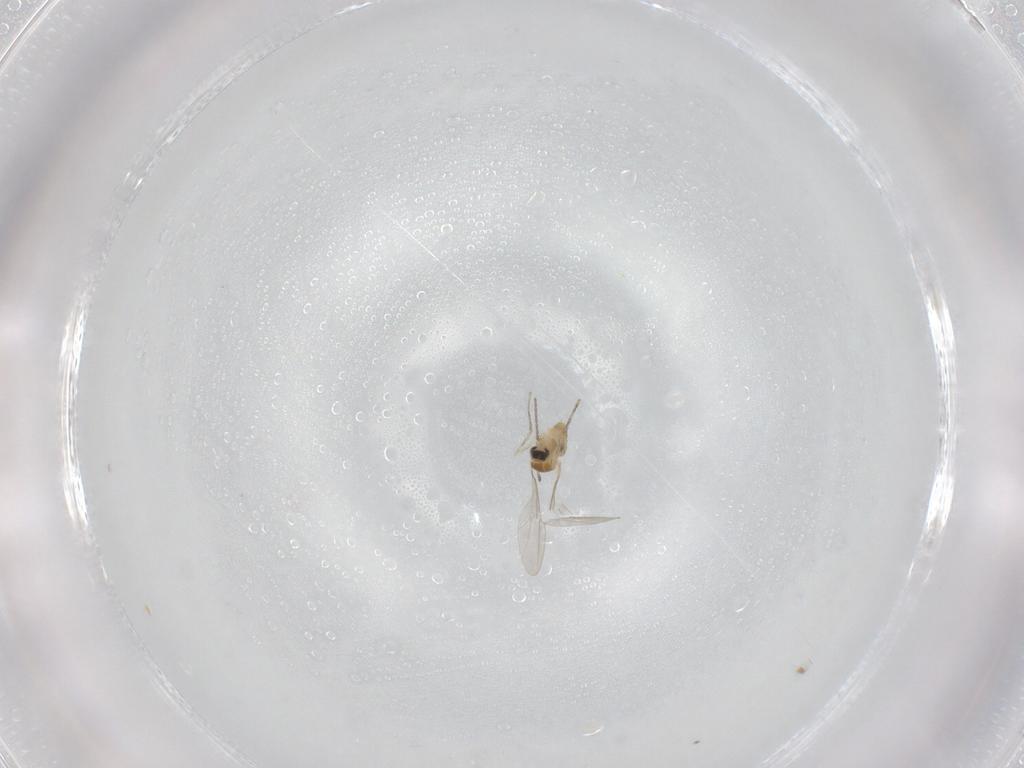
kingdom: Animalia
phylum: Arthropoda
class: Insecta
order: Diptera
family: Cecidomyiidae
